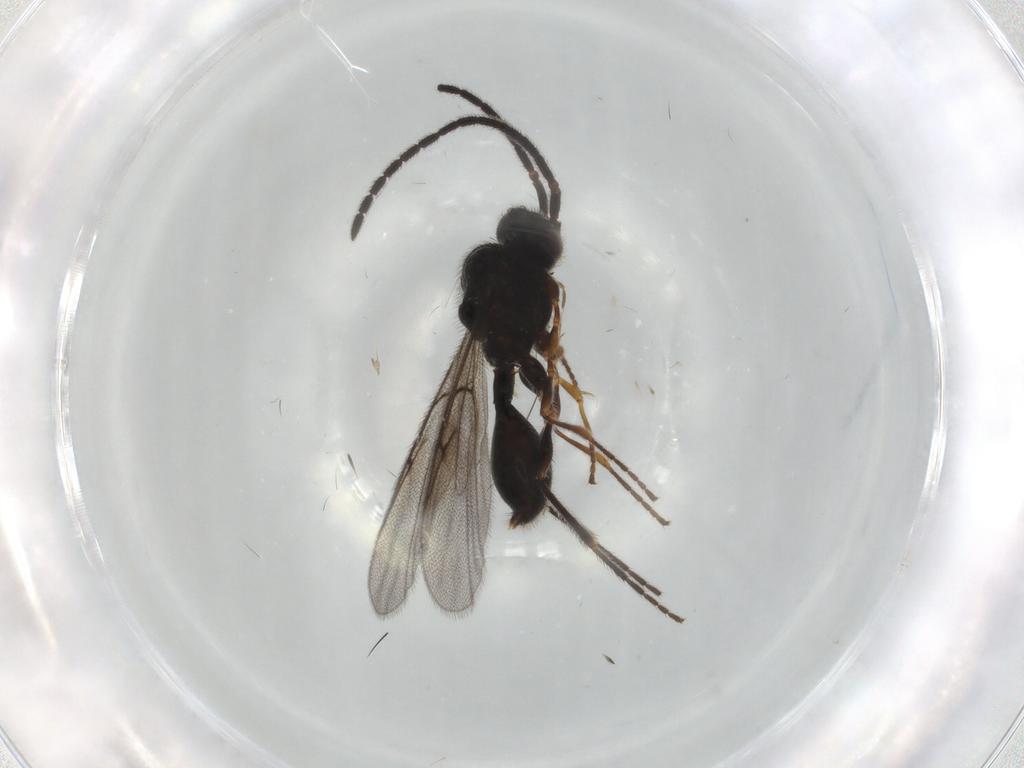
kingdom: Animalia
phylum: Arthropoda
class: Insecta
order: Hymenoptera
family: Diapriidae
